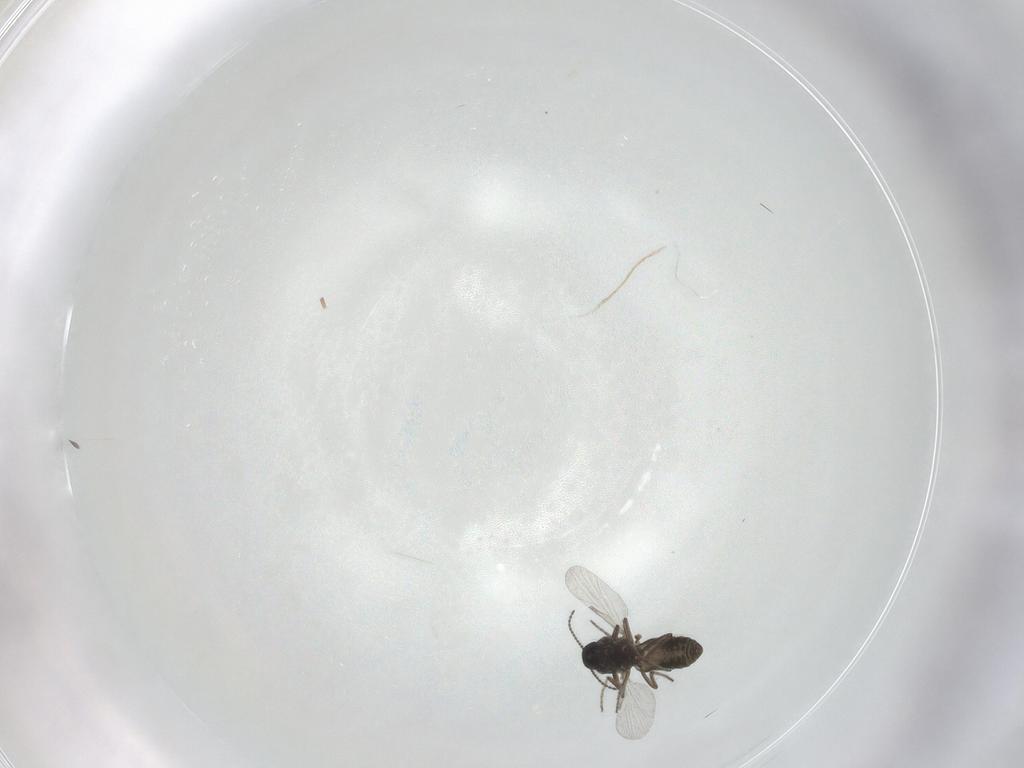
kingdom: Animalia
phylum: Arthropoda
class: Insecta
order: Diptera
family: Ceratopogonidae
